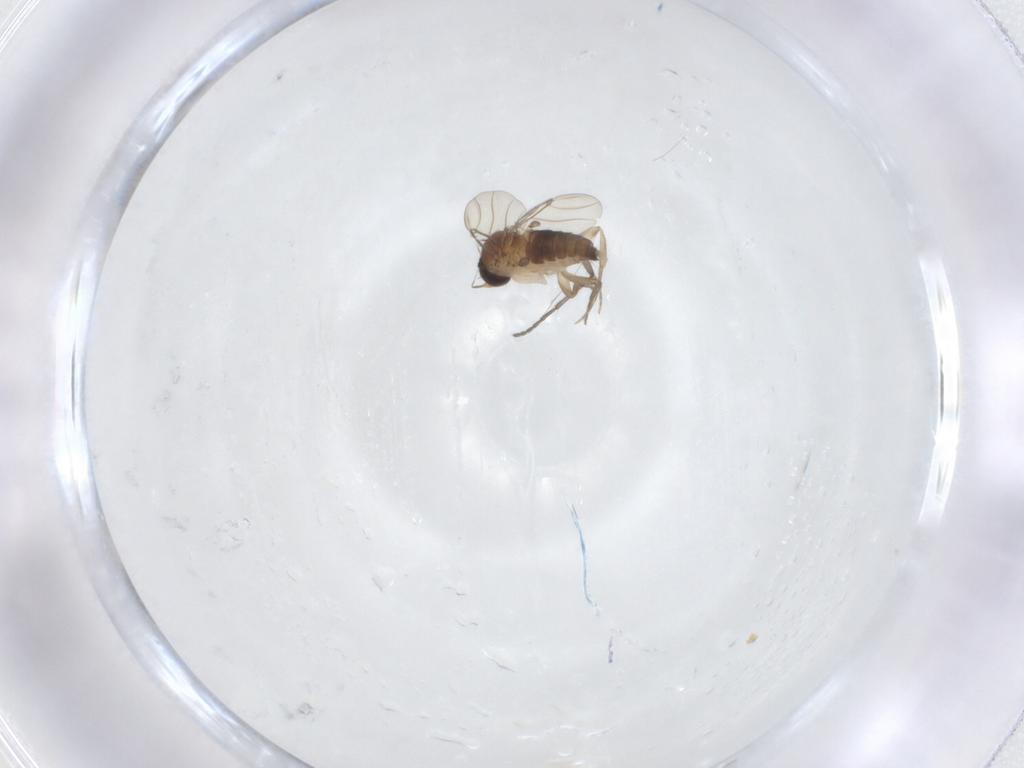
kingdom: Animalia
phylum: Arthropoda
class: Insecta
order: Diptera
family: Phoridae
